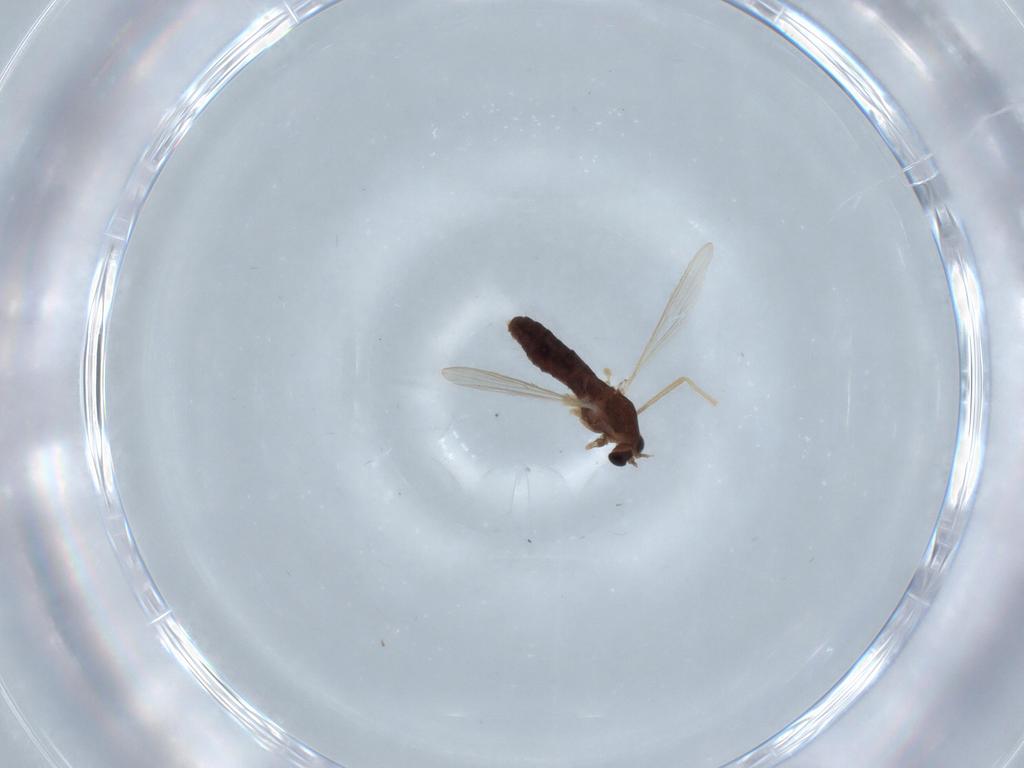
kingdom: Animalia
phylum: Arthropoda
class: Insecta
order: Diptera
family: Chironomidae
